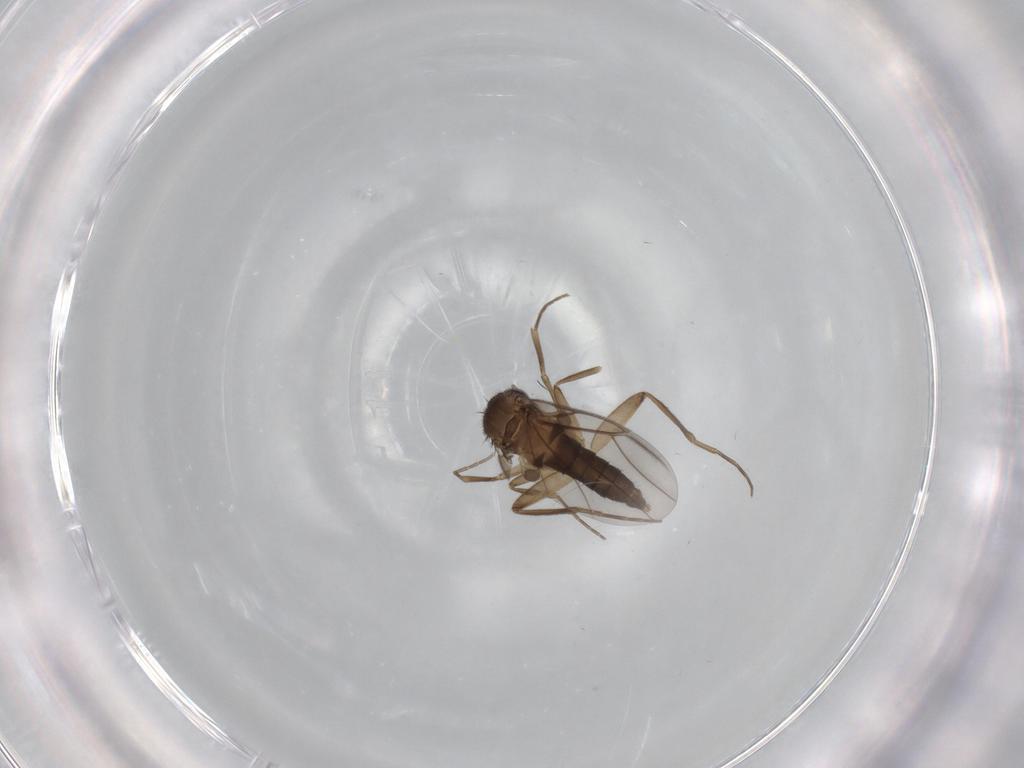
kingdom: Animalia
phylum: Arthropoda
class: Insecta
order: Diptera
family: Phoridae
